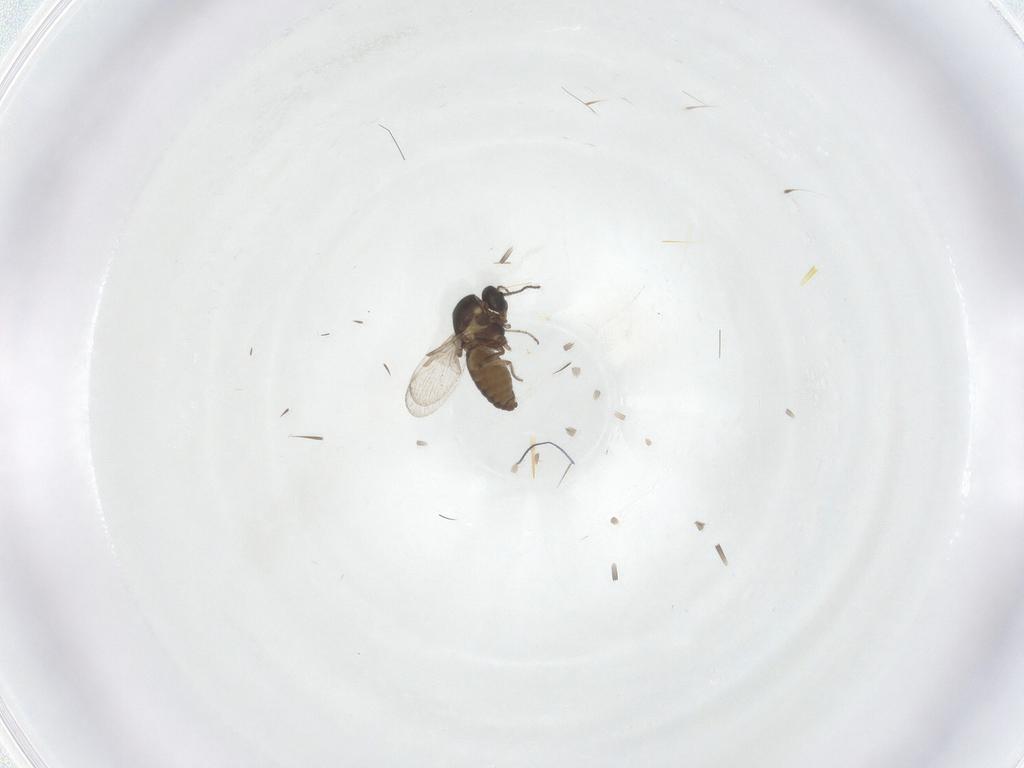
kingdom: Animalia
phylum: Arthropoda
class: Insecta
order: Diptera
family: Ceratopogonidae
